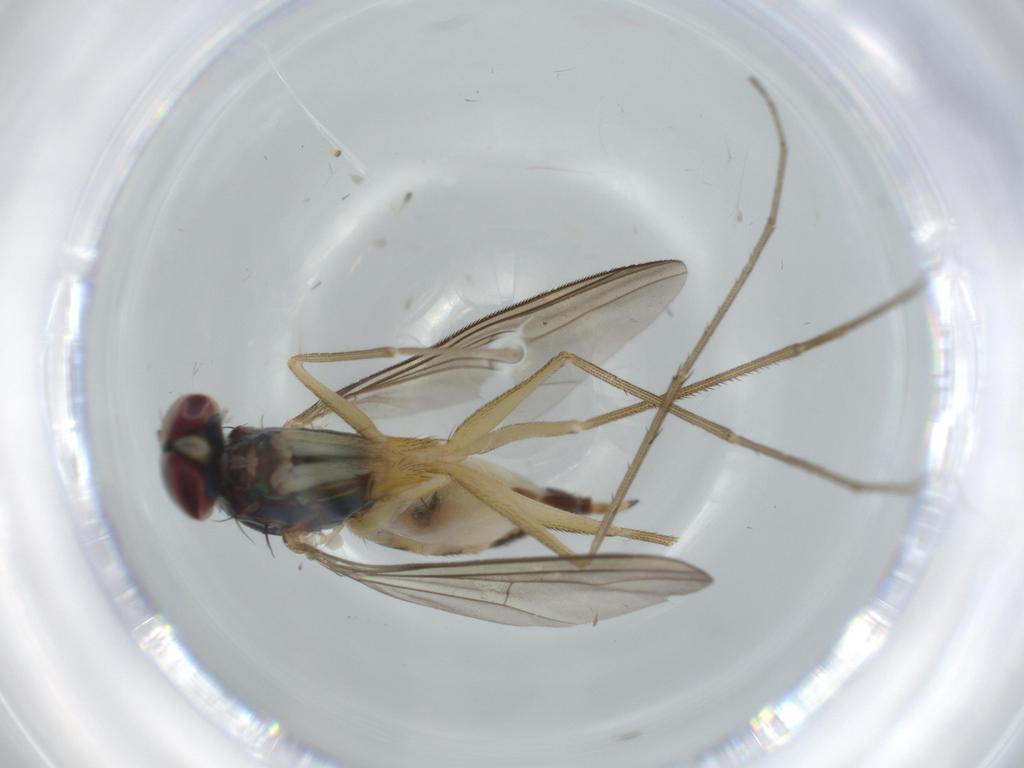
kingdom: Animalia
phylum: Arthropoda
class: Insecta
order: Diptera
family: Dolichopodidae
